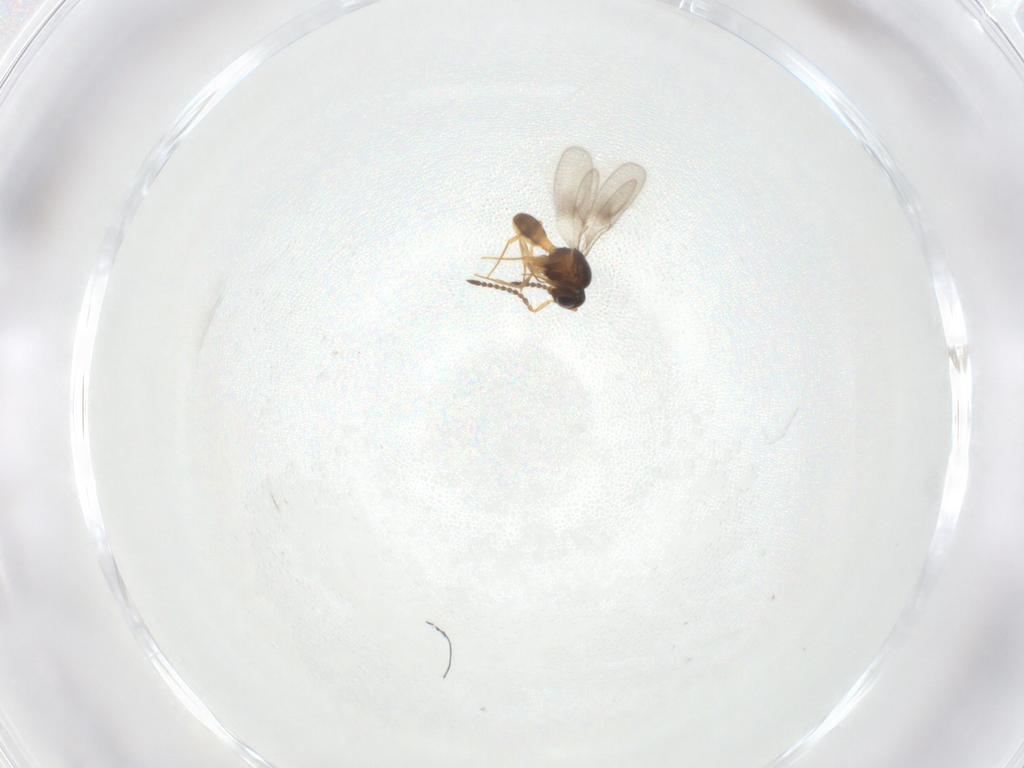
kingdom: Animalia
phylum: Arthropoda
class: Insecta
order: Hymenoptera
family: Scelionidae
